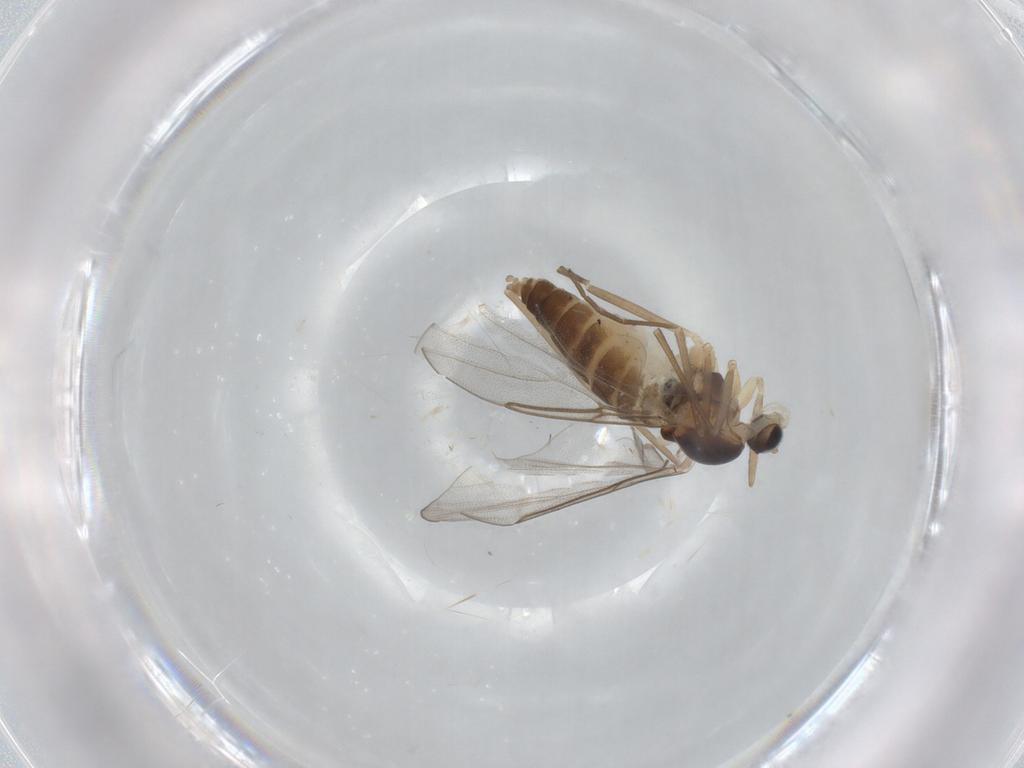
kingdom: Animalia
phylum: Arthropoda
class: Insecta
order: Diptera
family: Cecidomyiidae
